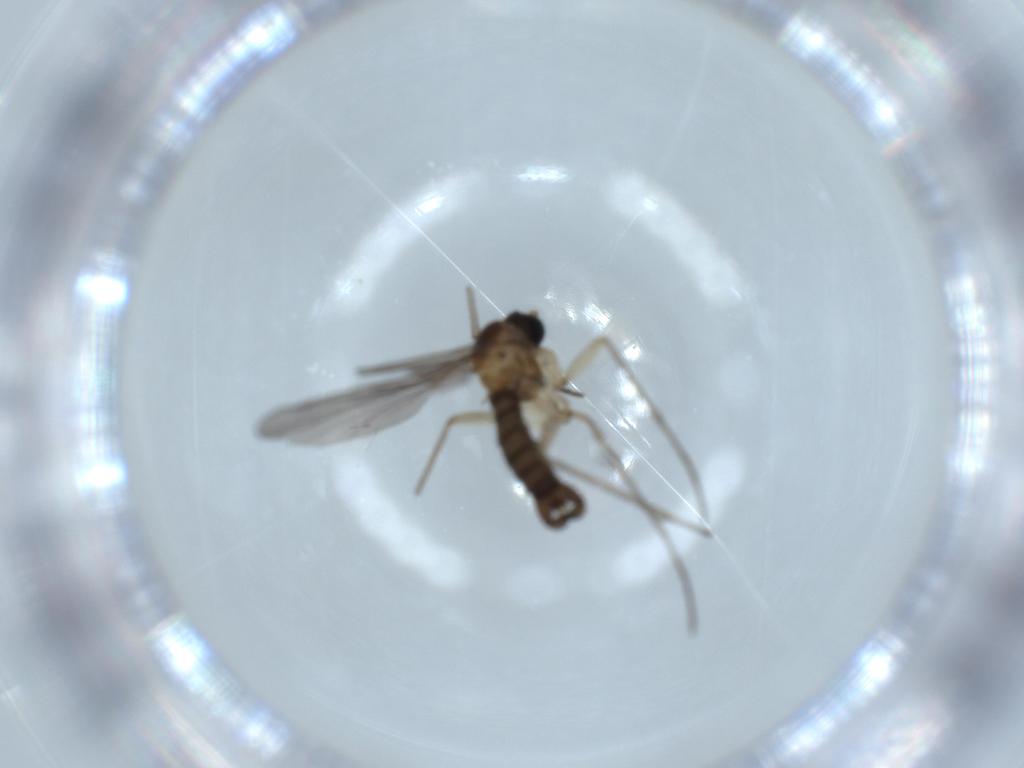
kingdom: Animalia
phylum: Arthropoda
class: Insecta
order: Diptera
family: Sciaridae
